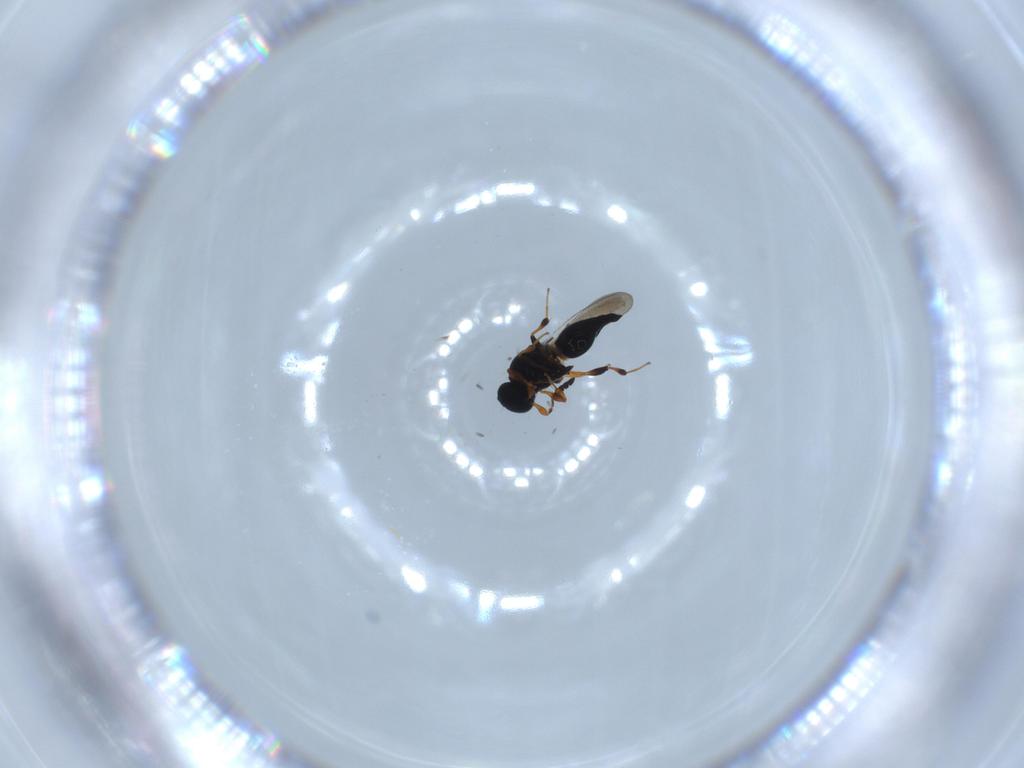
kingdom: Animalia
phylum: Arthropoda
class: Insecta
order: Hymenoptera
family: Platygastridae
